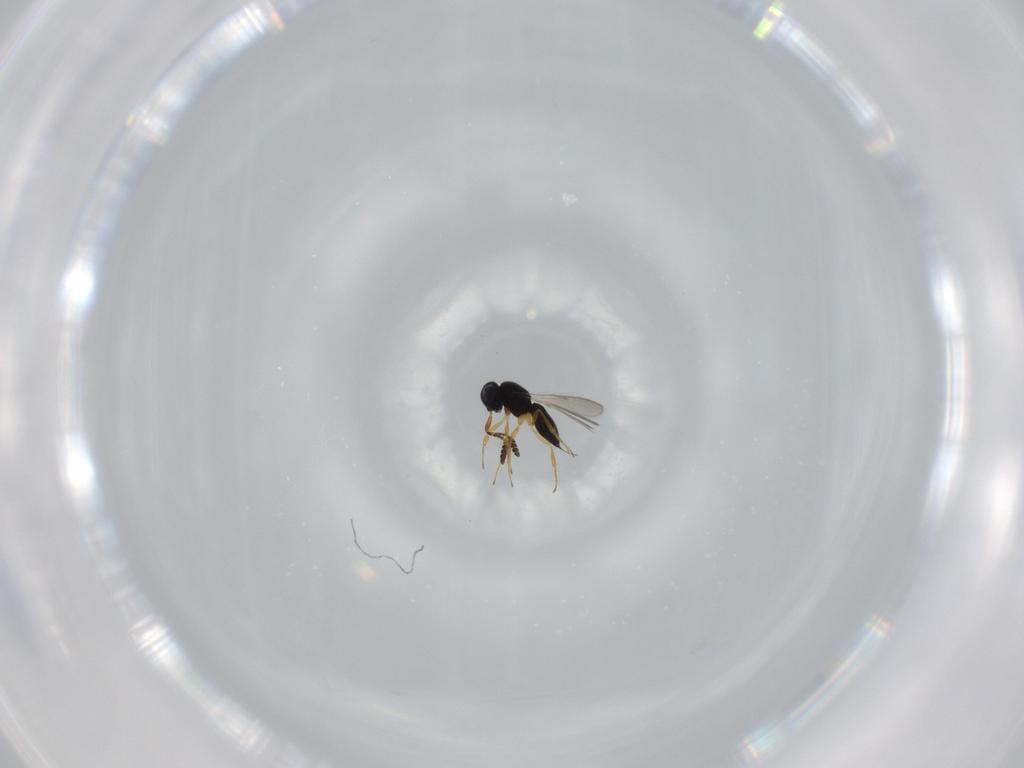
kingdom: Animalia
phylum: Arthropoda
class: Insecta
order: Hymenoptera
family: Scelionidae
